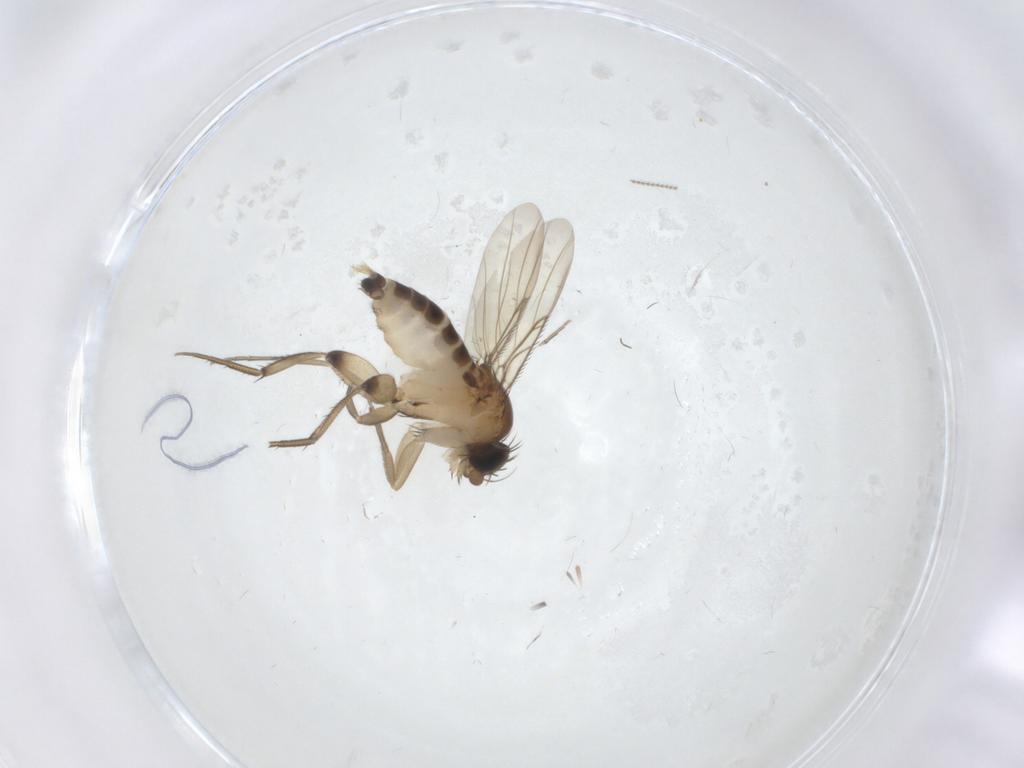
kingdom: Animalia
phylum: Arthropoda
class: Insecta
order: Diptera
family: Phoridae
